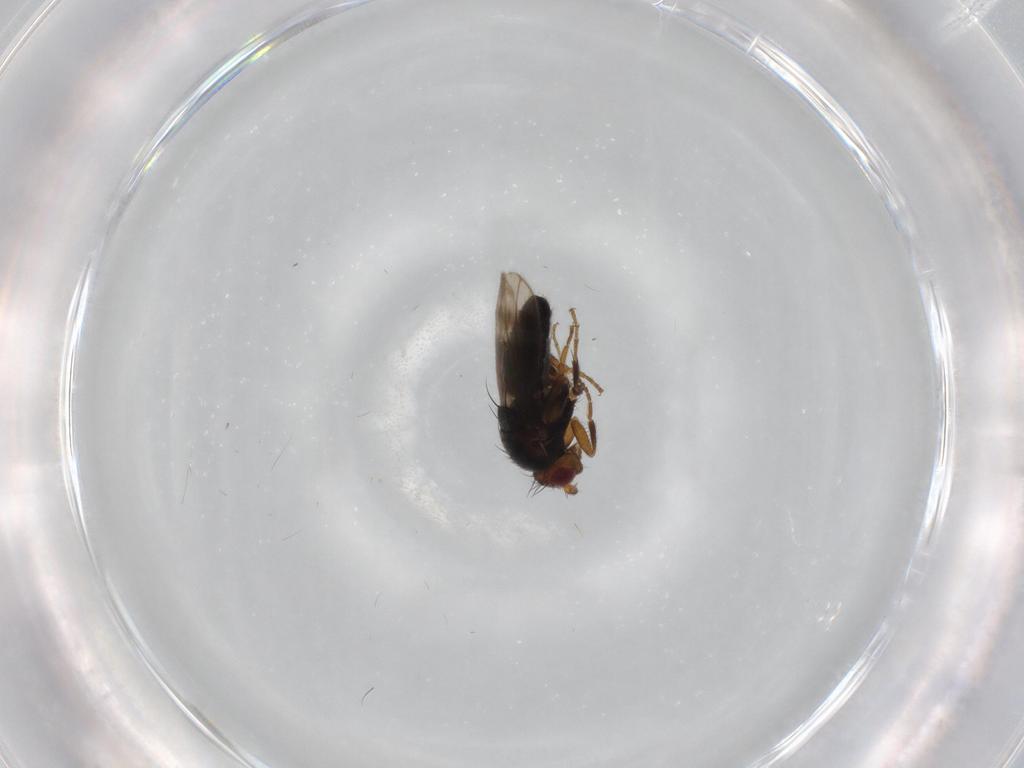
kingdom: Animalia
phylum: Arthropoda
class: Insecta
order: Diptera
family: Sphaeroceridae
